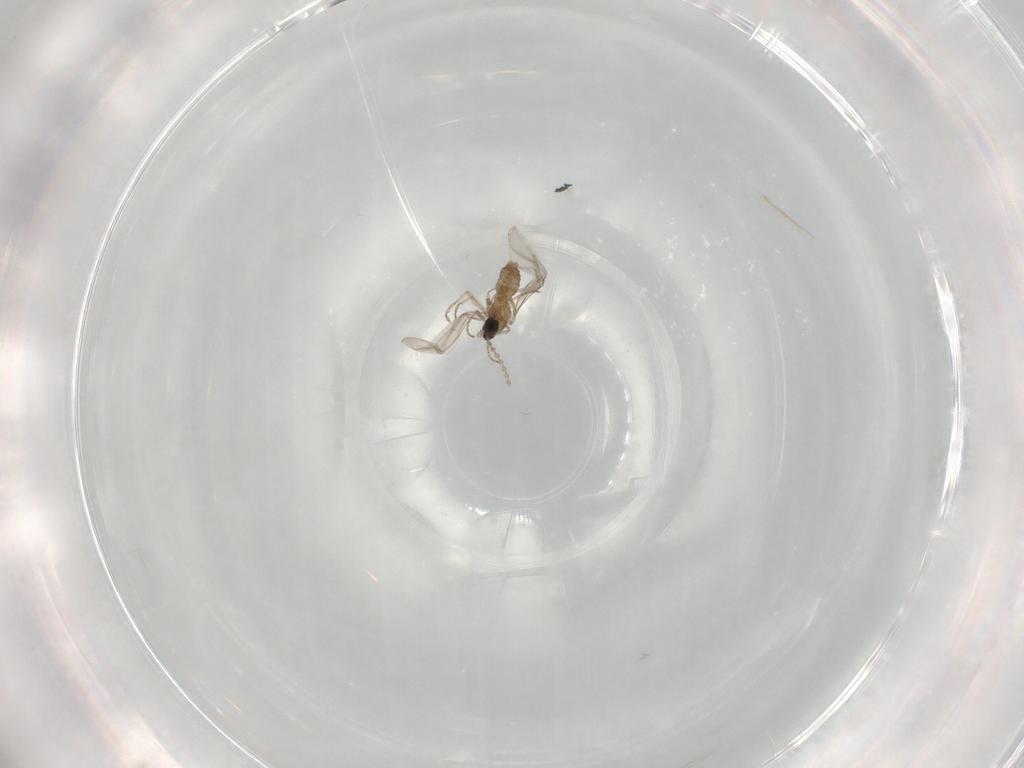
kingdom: Animalia
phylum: Arthropoda
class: Insecta
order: Diptera
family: Cecidomyiidae
